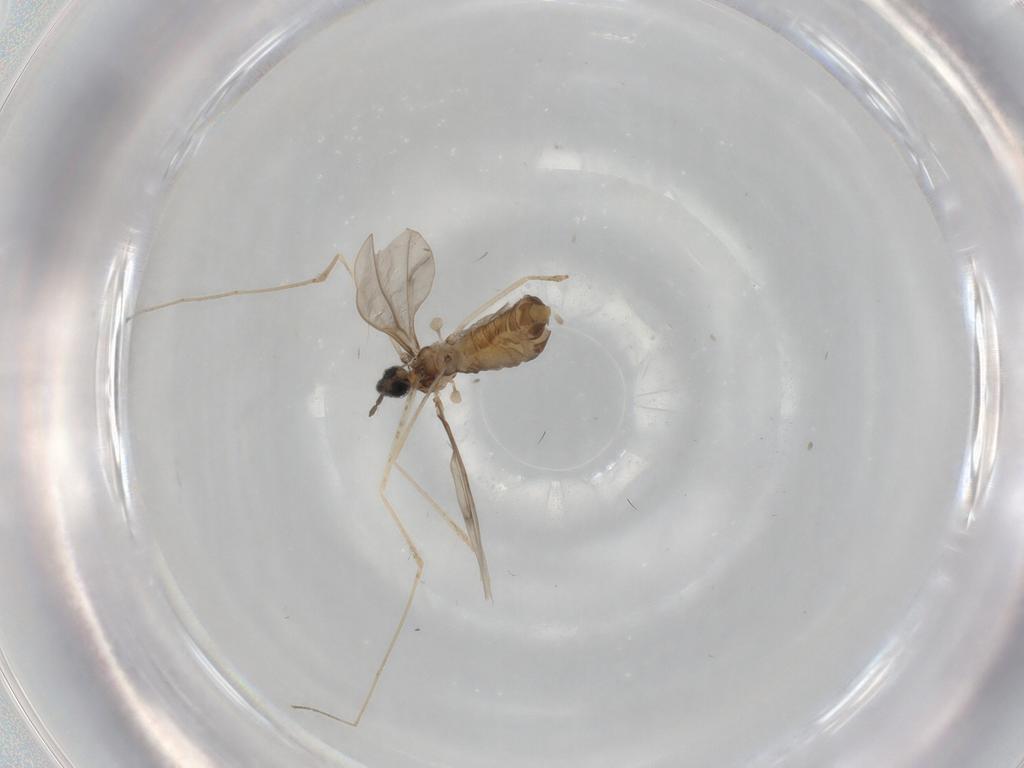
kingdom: Animalia
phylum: Arthropoda
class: Insecta
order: Diptera
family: Cecidomyiidae
